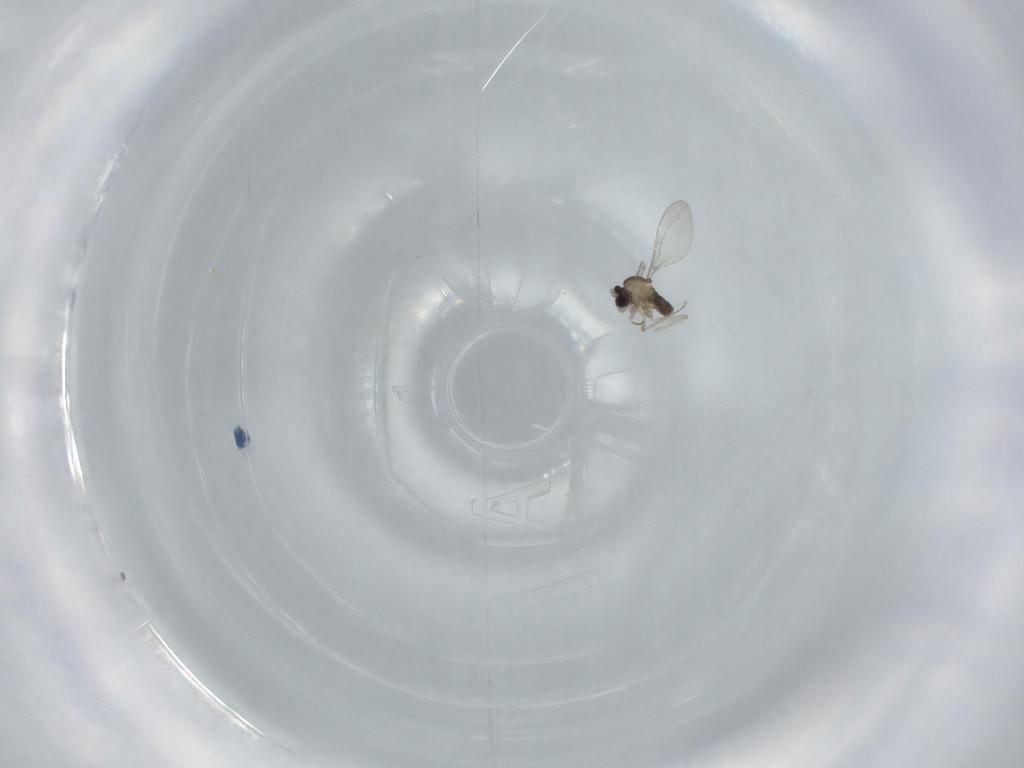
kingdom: Animalia
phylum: Arthropoda
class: Insecta
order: Diptera
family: Cecidomyiidae
